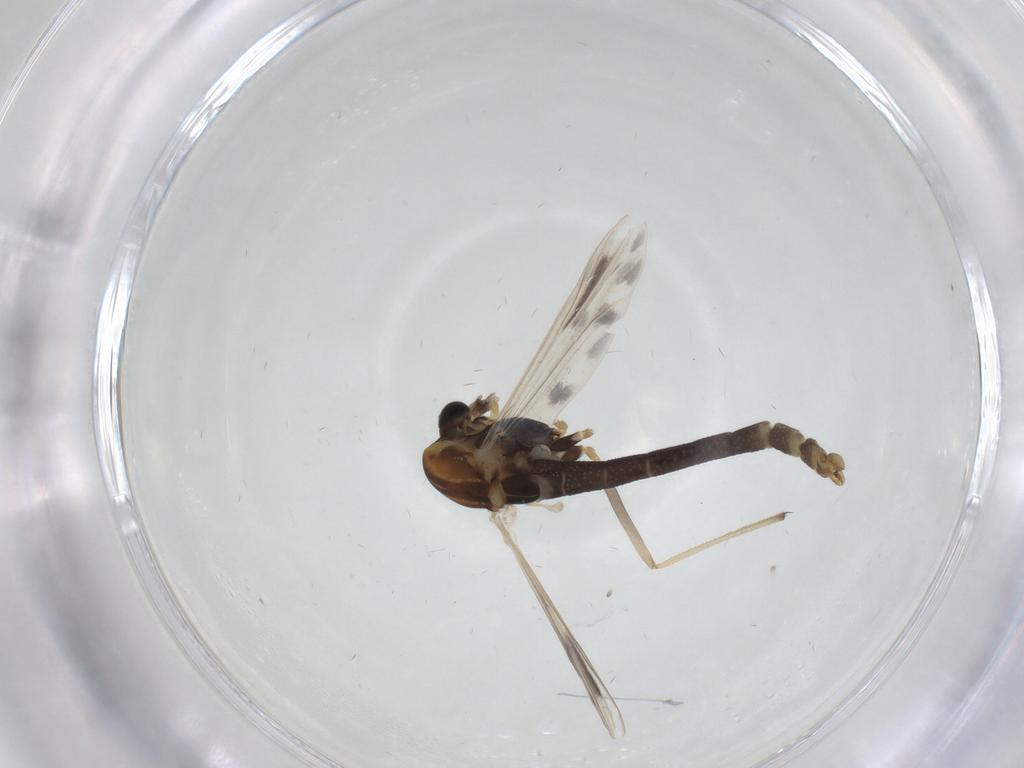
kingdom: Animalia
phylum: Arthropoda
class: Insecta
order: Diptera
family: Chironomidae
